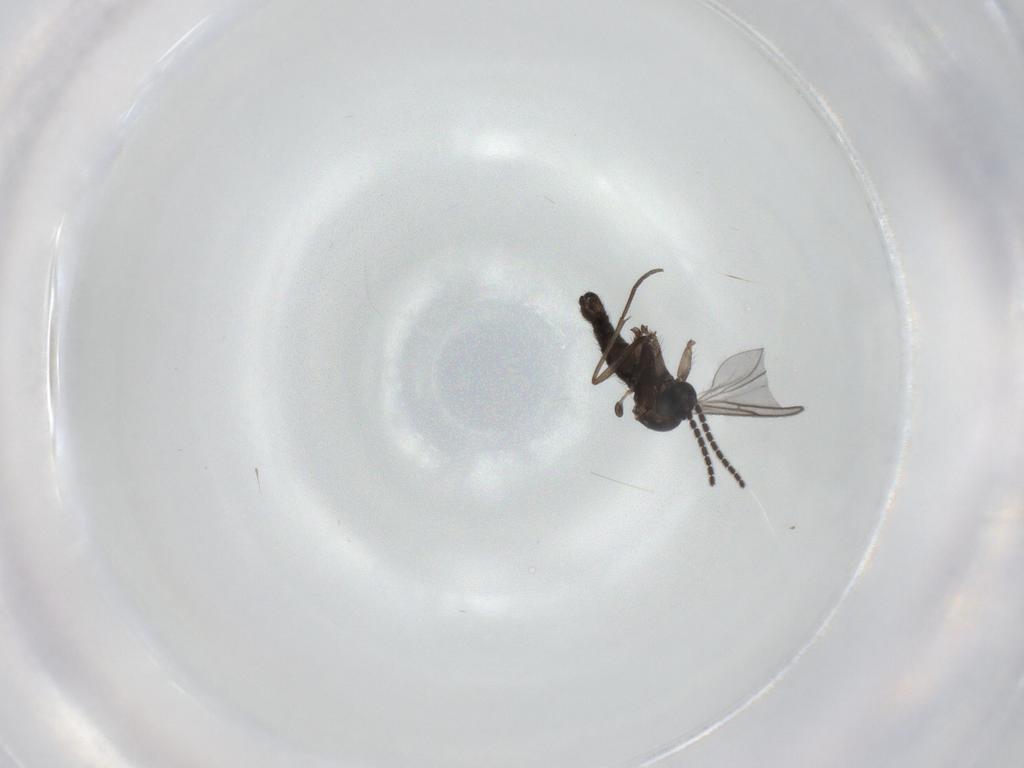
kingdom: Animalia
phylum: Arthropoda
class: Insecta
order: Diptera
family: Sciaridae
